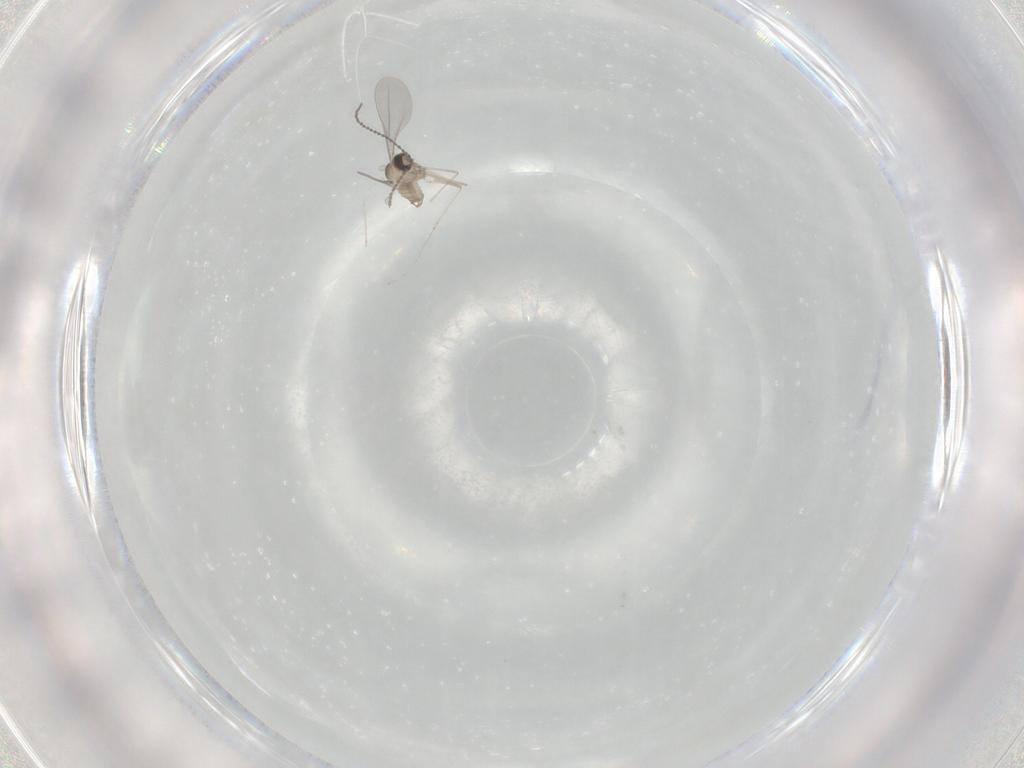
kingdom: Animalia
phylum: Arthropoda
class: Insecta
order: Diptera
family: Cecidomyiidae
